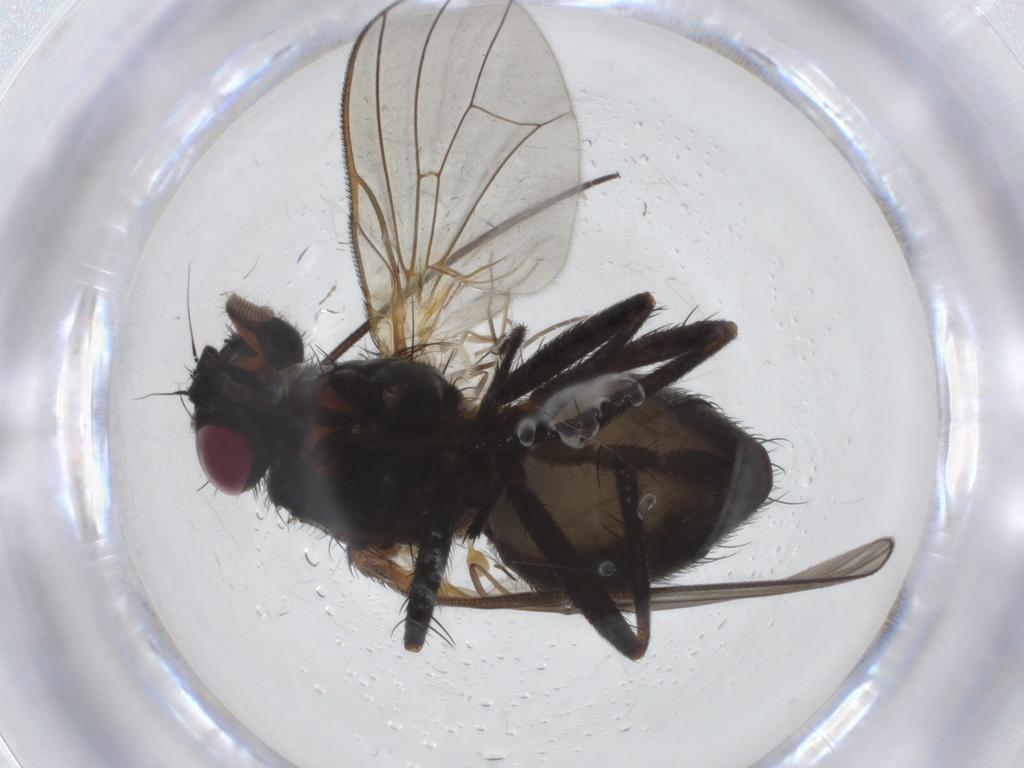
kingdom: Animalia
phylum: Arthropoda
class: Insecta
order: Diptera
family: Fanniidae
